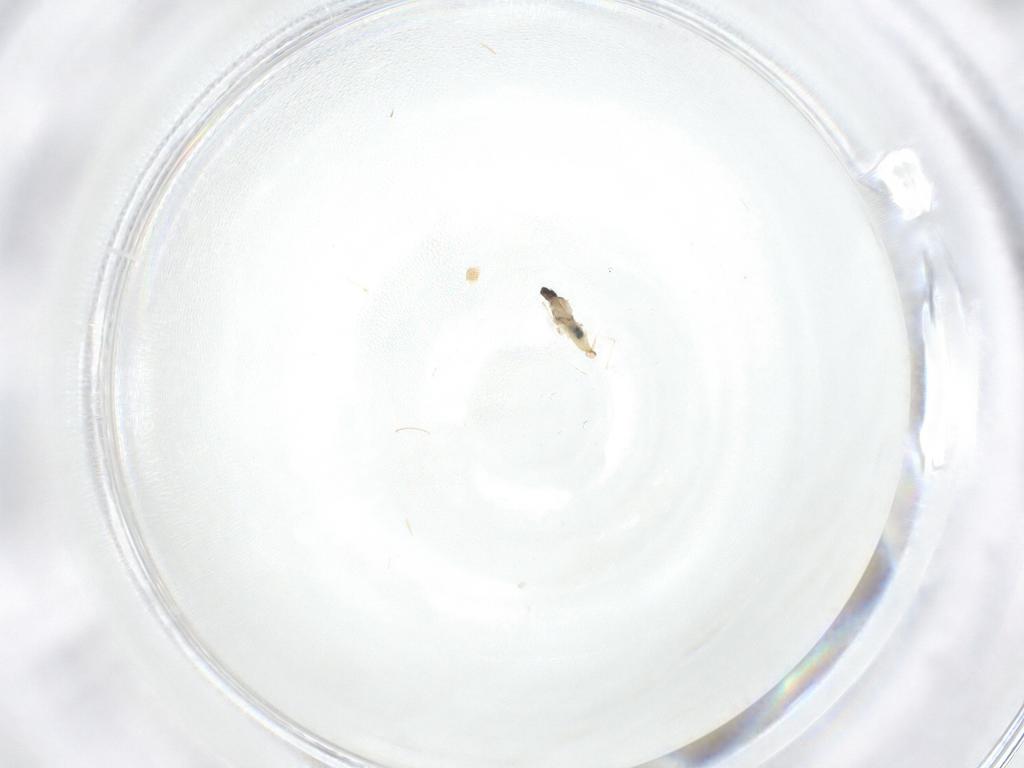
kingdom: Animalia
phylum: Arthropoda
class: Insecta
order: Diptera
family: Cecidomyiidae
